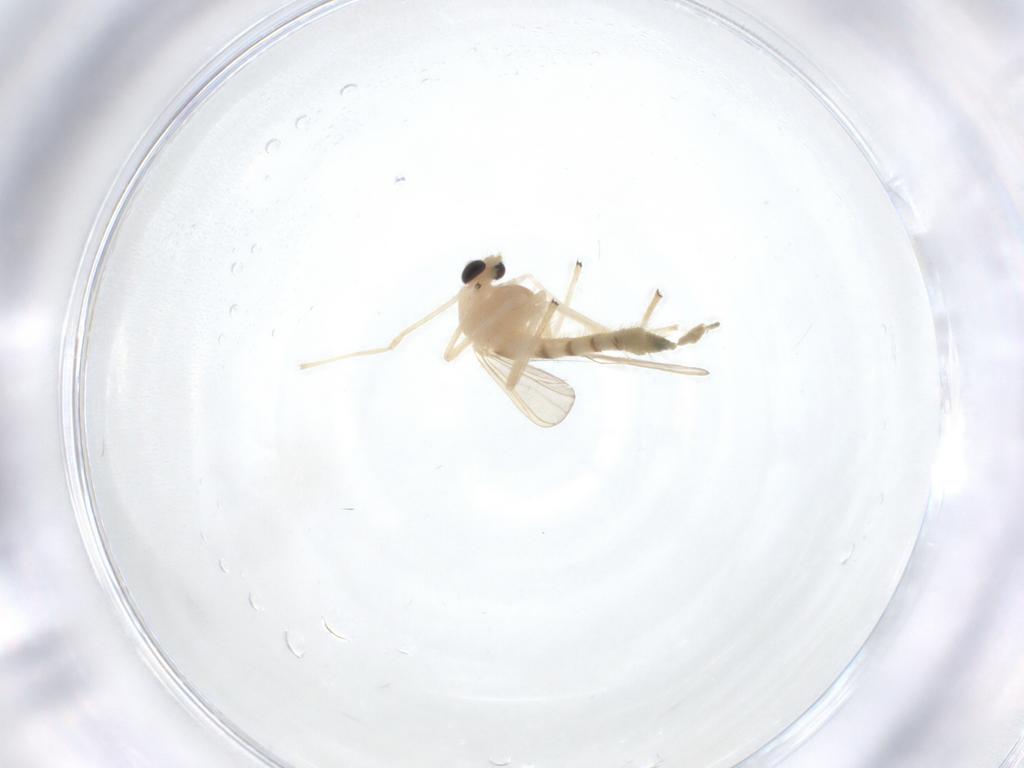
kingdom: Animalia
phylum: Arthropoda
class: Insecta
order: Diptera
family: Chironomidae
